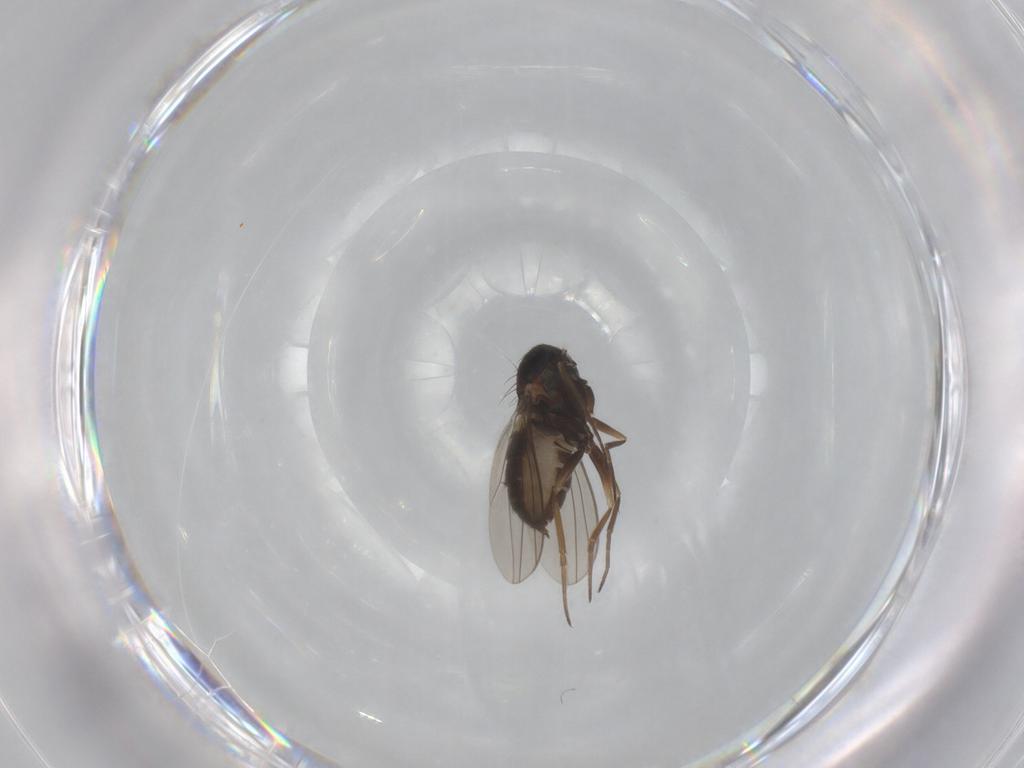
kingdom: Animalia
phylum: Arthropoda
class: Insecta
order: Diptera
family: Dolichopodidae
